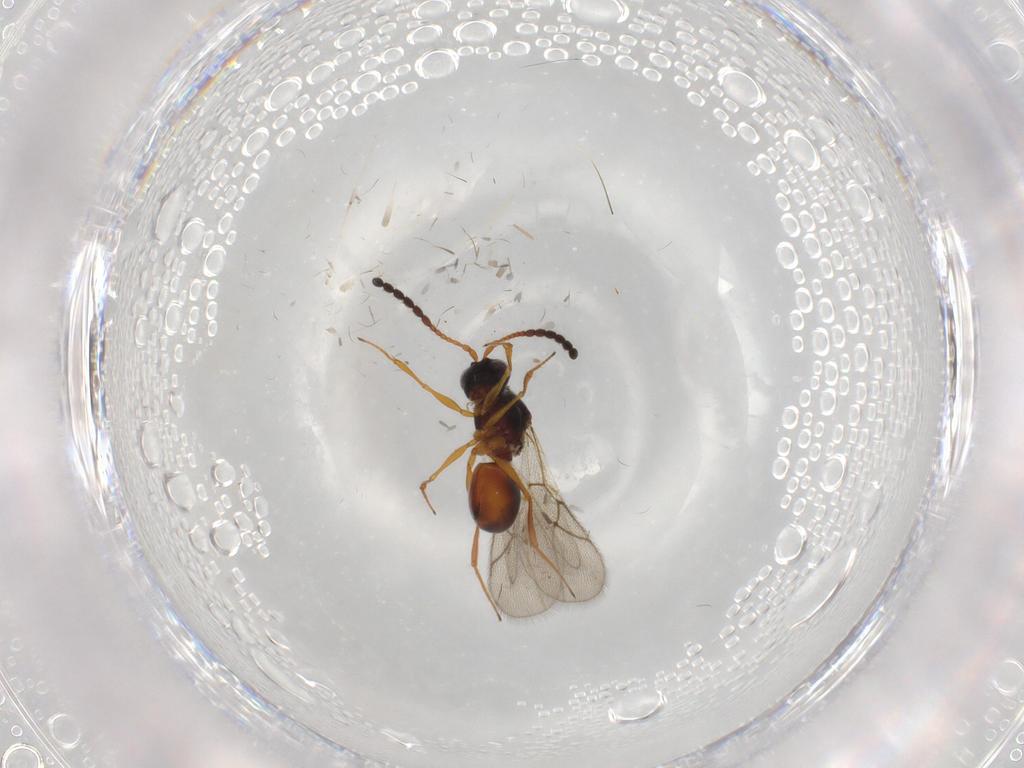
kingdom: Animalia
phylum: Arthropoda
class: Insecta
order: Hymenoptera
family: Figitidae
